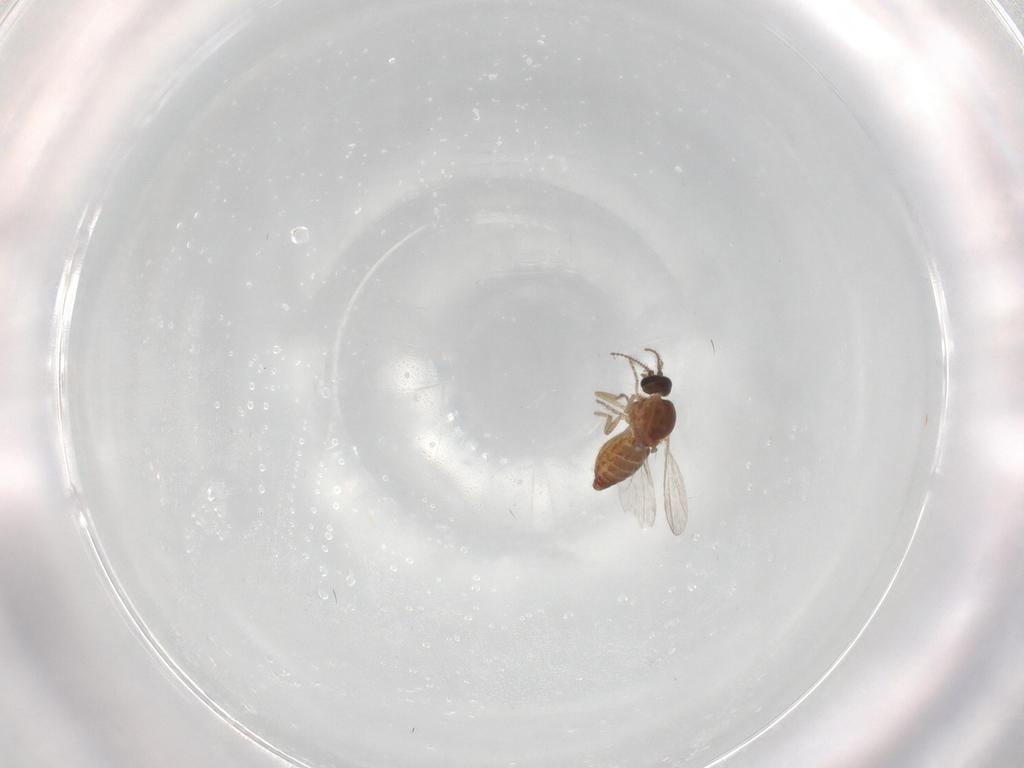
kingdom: Animalia
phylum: Arthropoda
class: Insecta
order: Diptera
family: Ceratopogonidae
